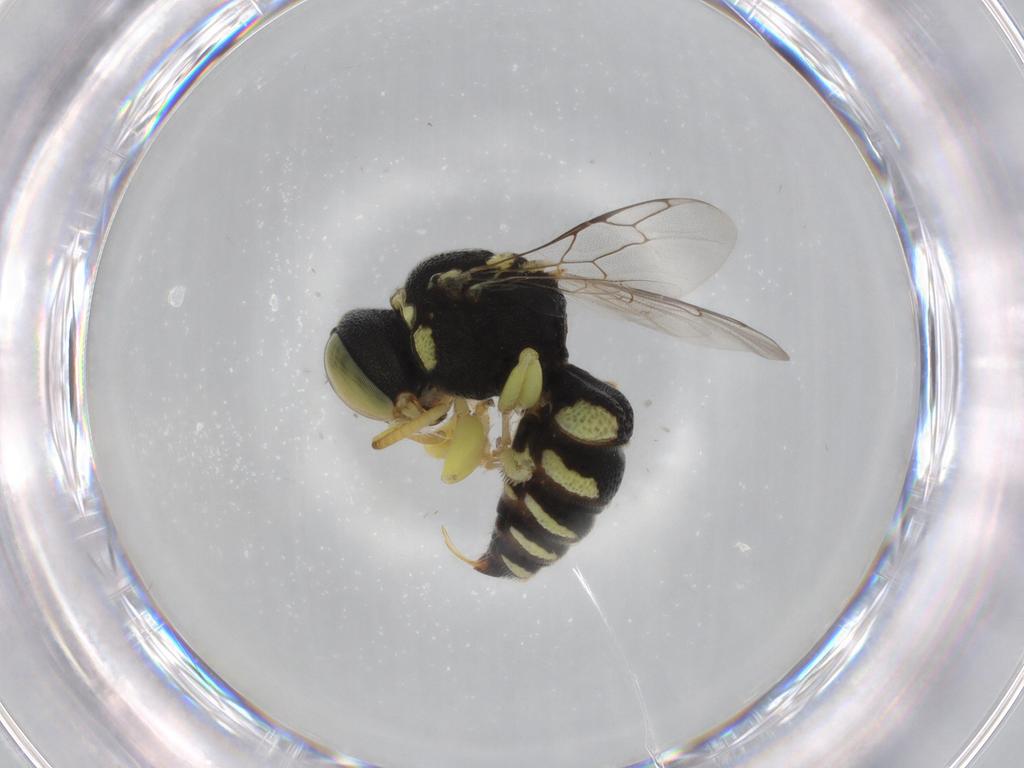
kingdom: Animalia
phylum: Arthropoda
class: Insecta
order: Hymenoptera
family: Crabronidae
